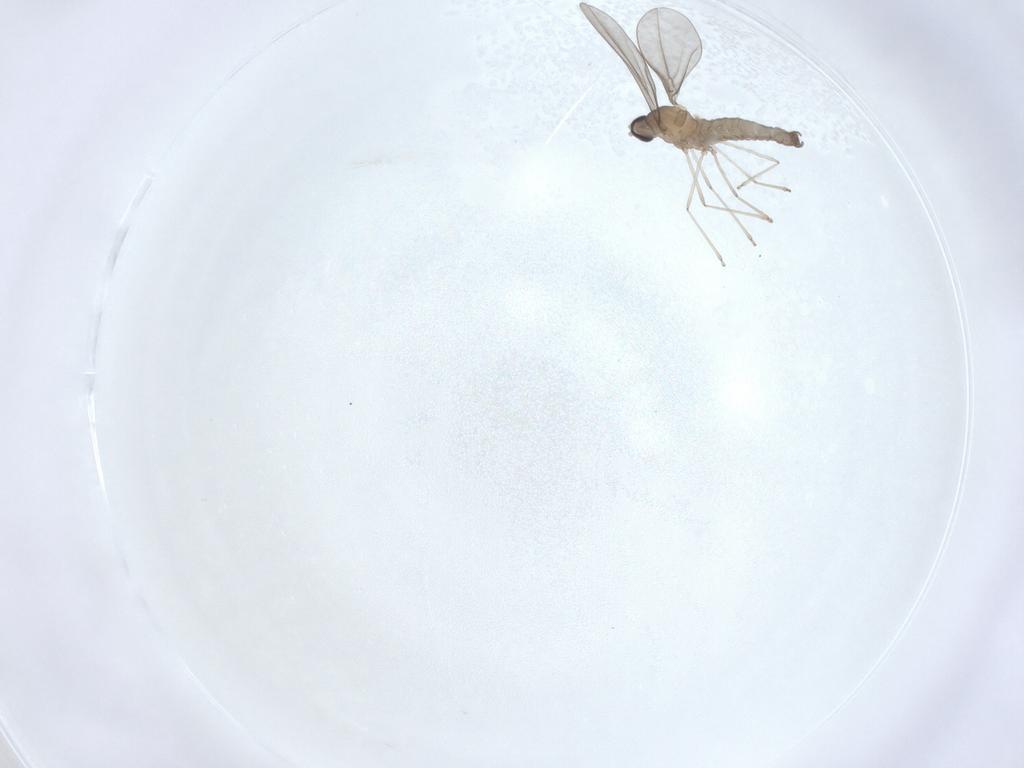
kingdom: Animalia
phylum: Arthropoda
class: Insecta
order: Diptera
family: Cecidomyiidae
